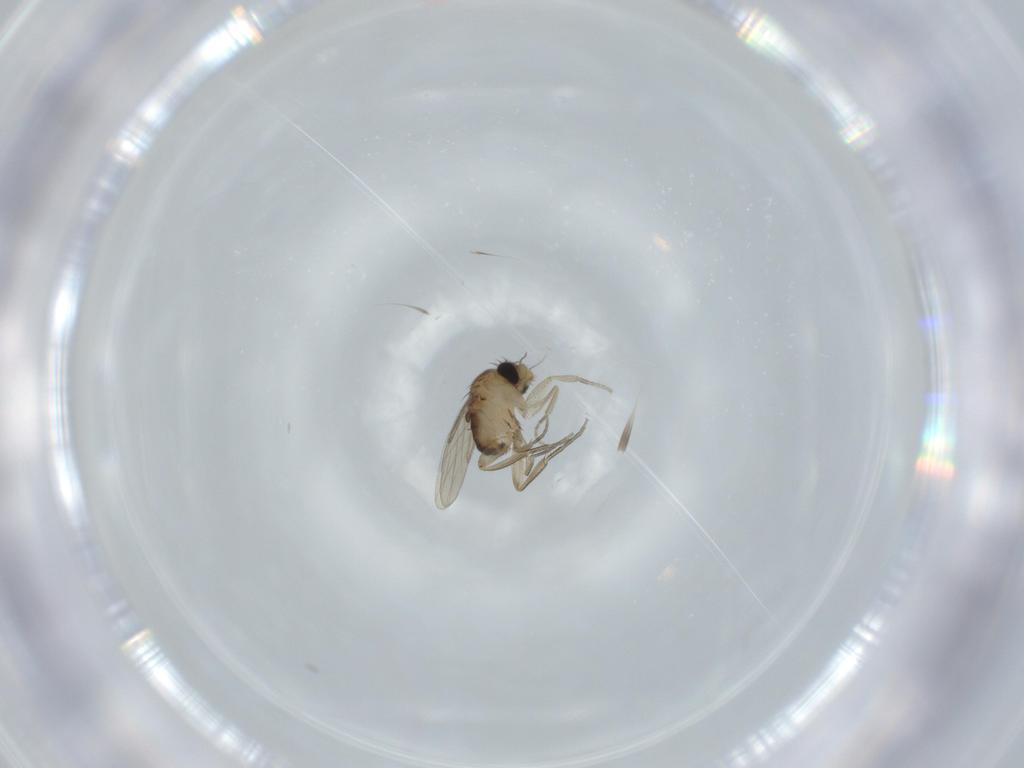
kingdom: Animalia
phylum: Arthropoda
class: Insecta
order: Diptera
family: Phoridae
